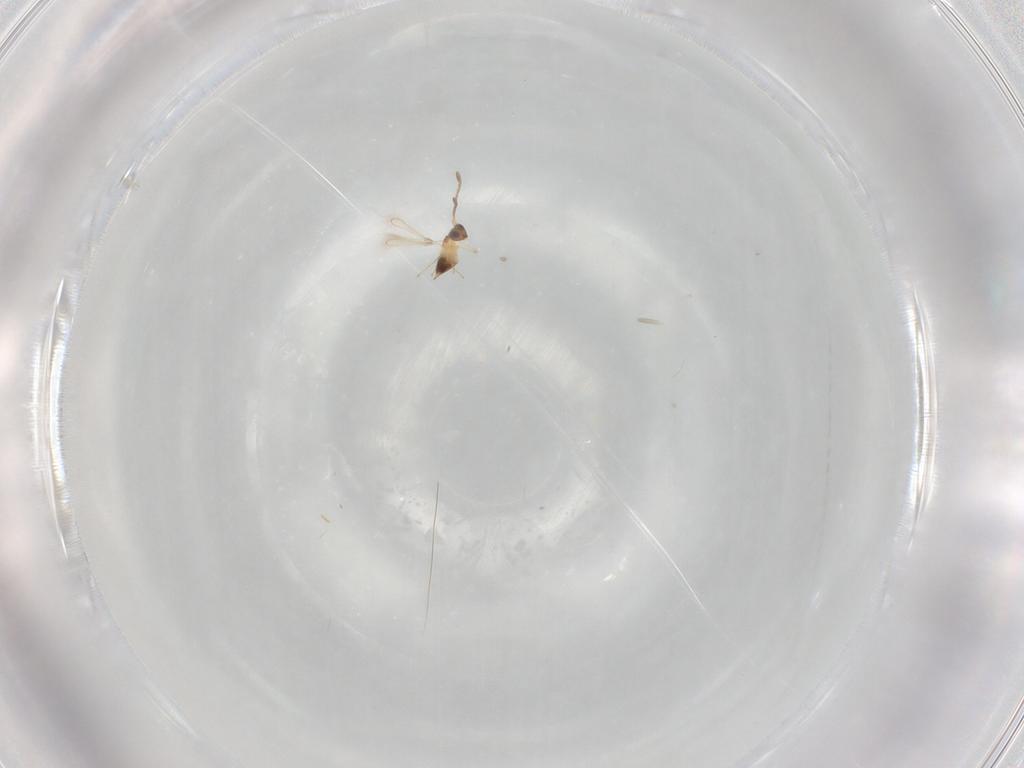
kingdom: Animalia
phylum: Arthropoda
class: Insecta
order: Hymenoptera
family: Mymaridae
